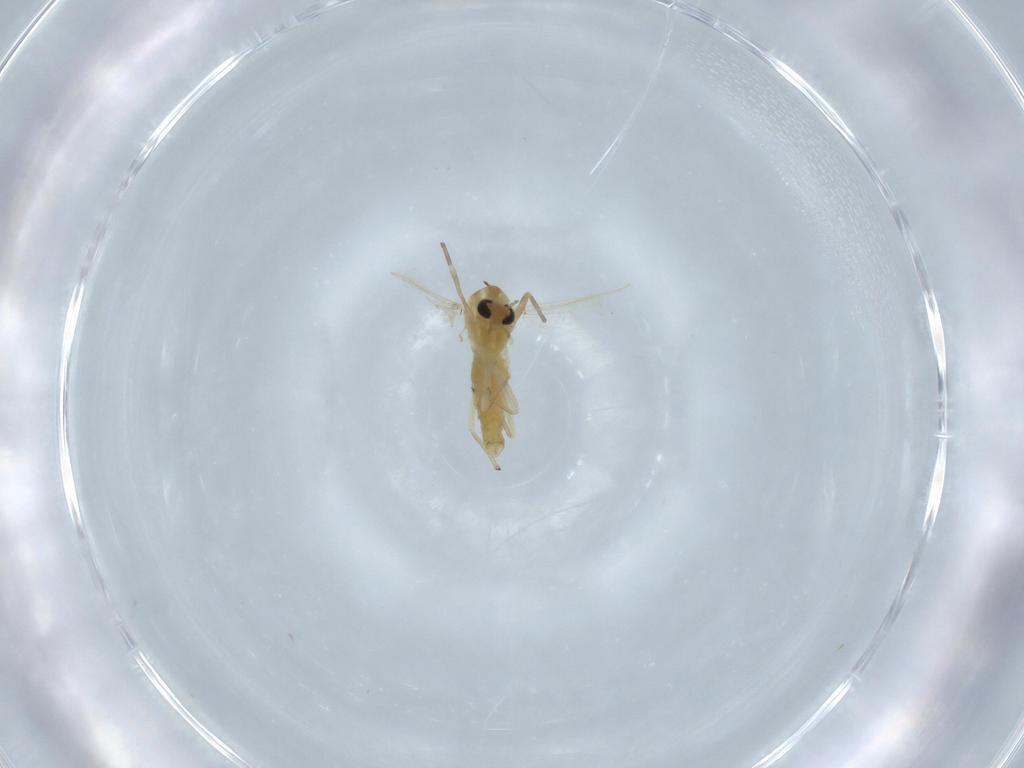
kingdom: Animalia
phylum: Arthropoda
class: Insecta
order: Diptera
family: Chironomidae
